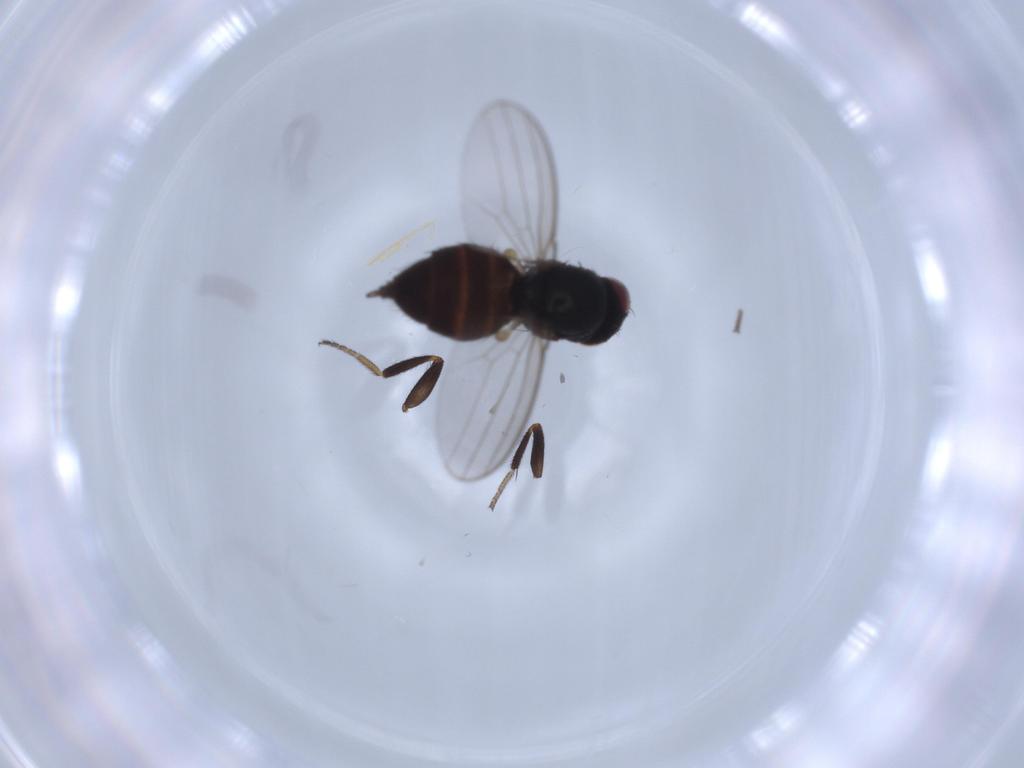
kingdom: Animalia
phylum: Arthropoda
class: Insecta
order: Diptera
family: Milichiidae
